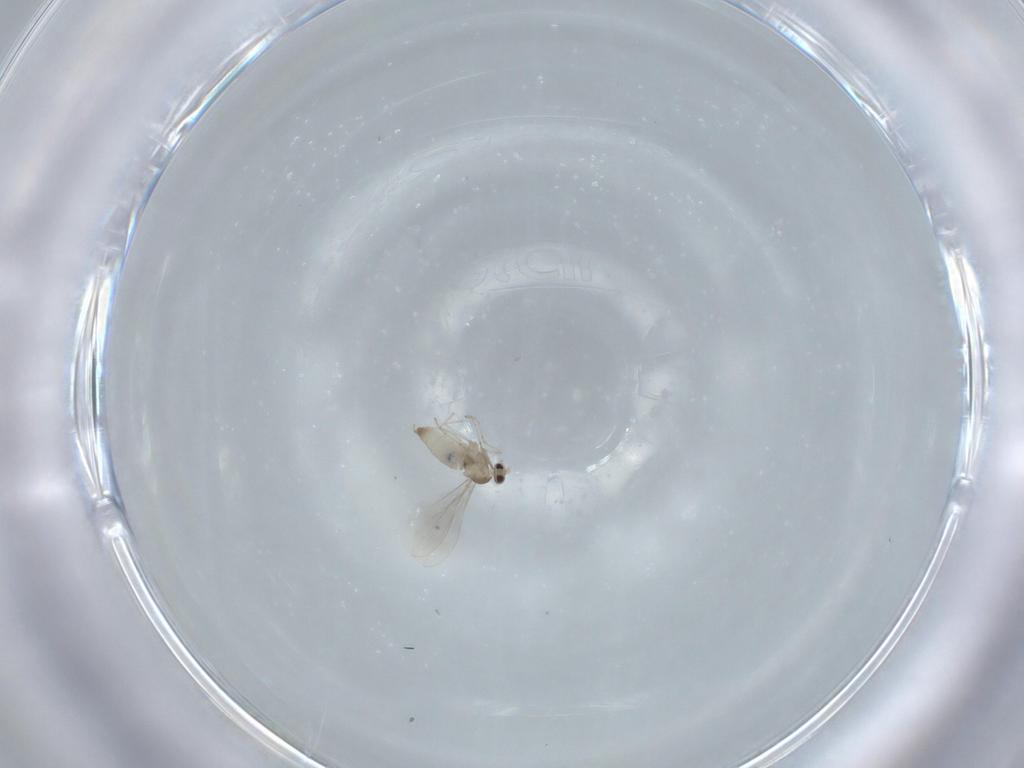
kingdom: Animalia
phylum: Arthropoda
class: Insecta
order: Diptera
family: Cecidomyiidae
